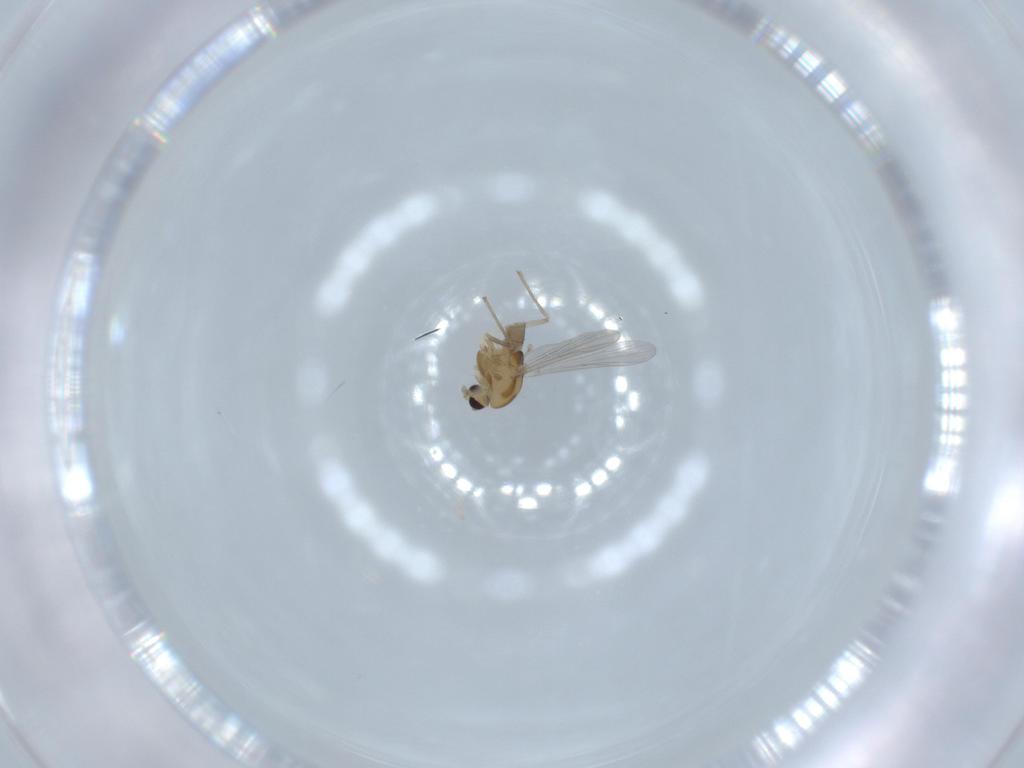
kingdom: Animalia
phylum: Arthropoda
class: Insecta
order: Diptera
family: Chironomidae
